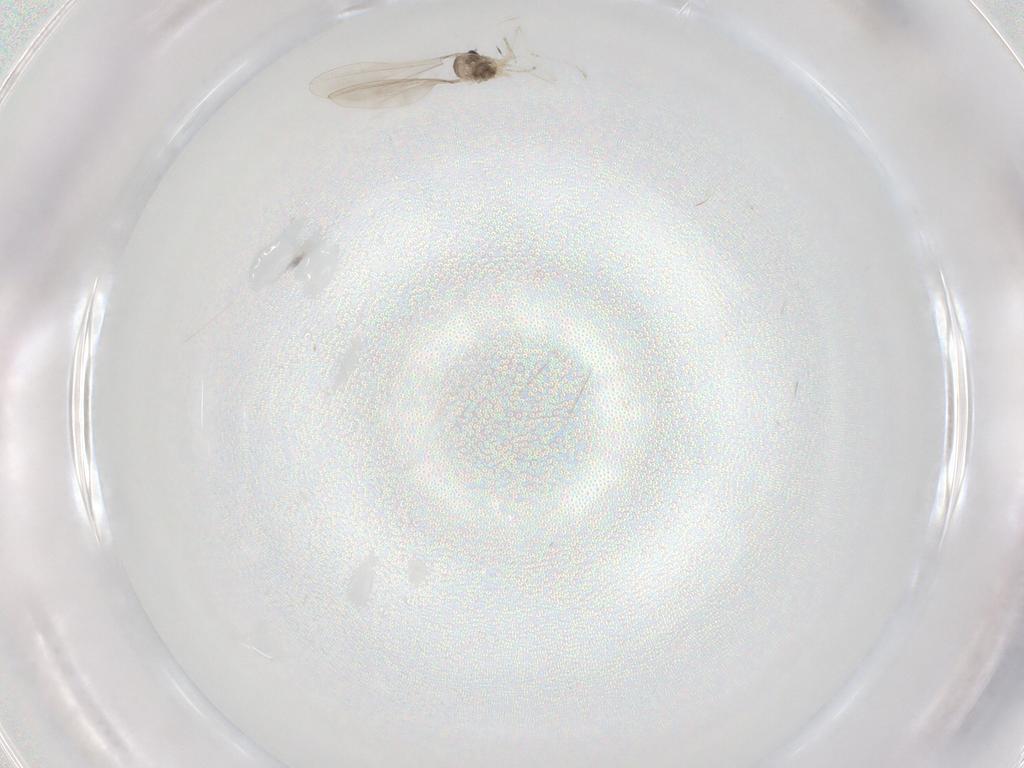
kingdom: Animalia
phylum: Arthropoda
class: Insecta
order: Diptera
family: Cecidomyiidae
